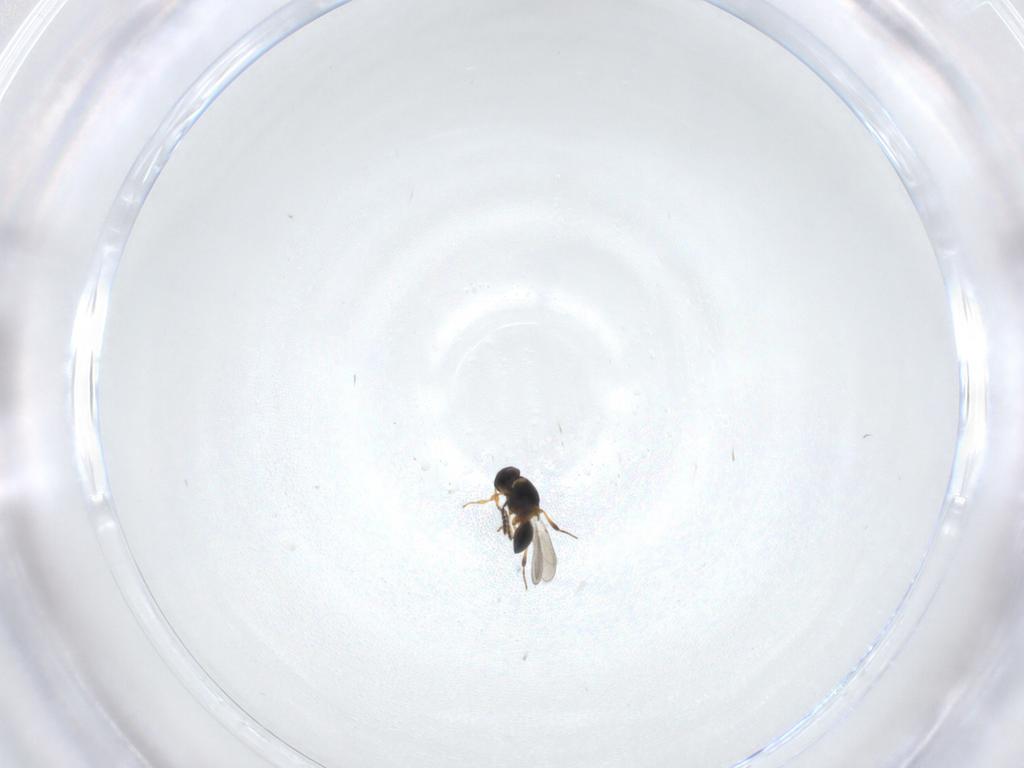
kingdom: Animalia
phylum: Arthropoda
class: Insecta
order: Hymenoptera
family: Platygastridae
